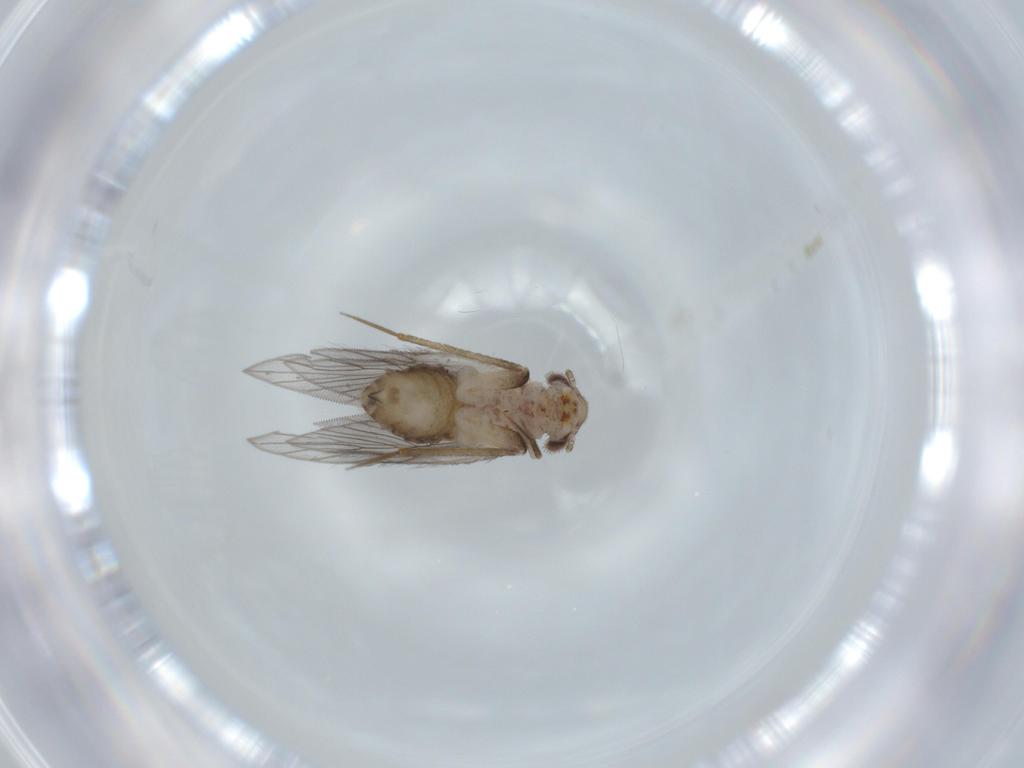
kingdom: Animalia
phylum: Arthropoda
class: Insecta
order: Psocodea
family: Lepidopsocidae
